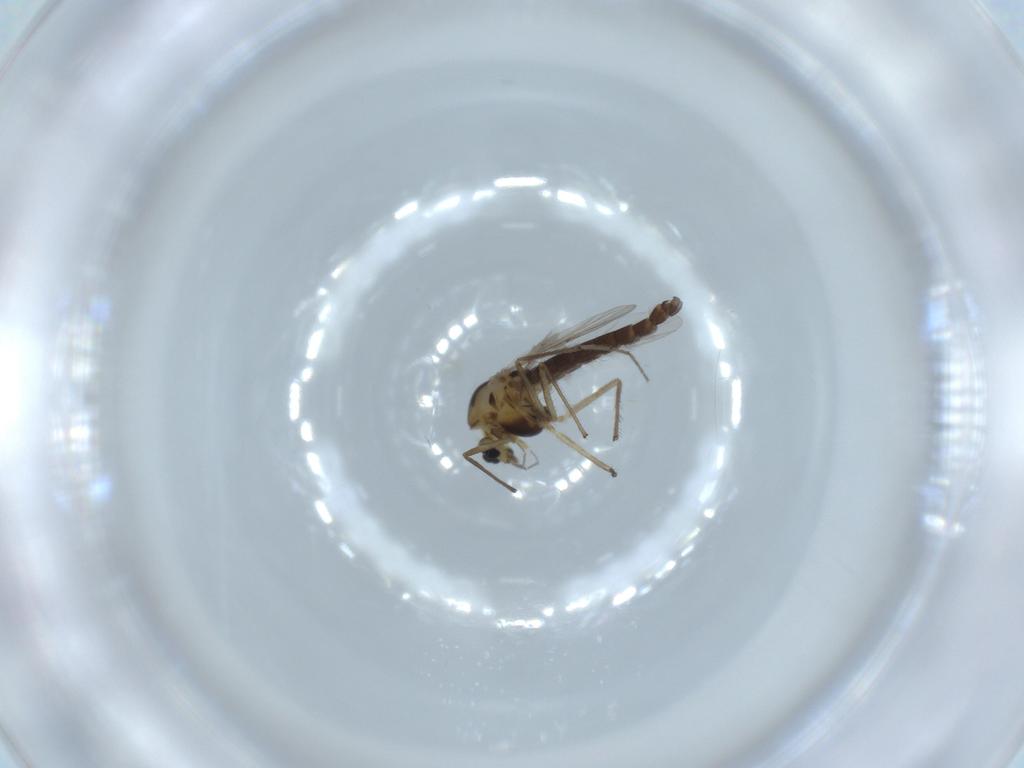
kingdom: Animalia
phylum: Arthropoda
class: Insecta
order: Diptera
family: Chironomidae
